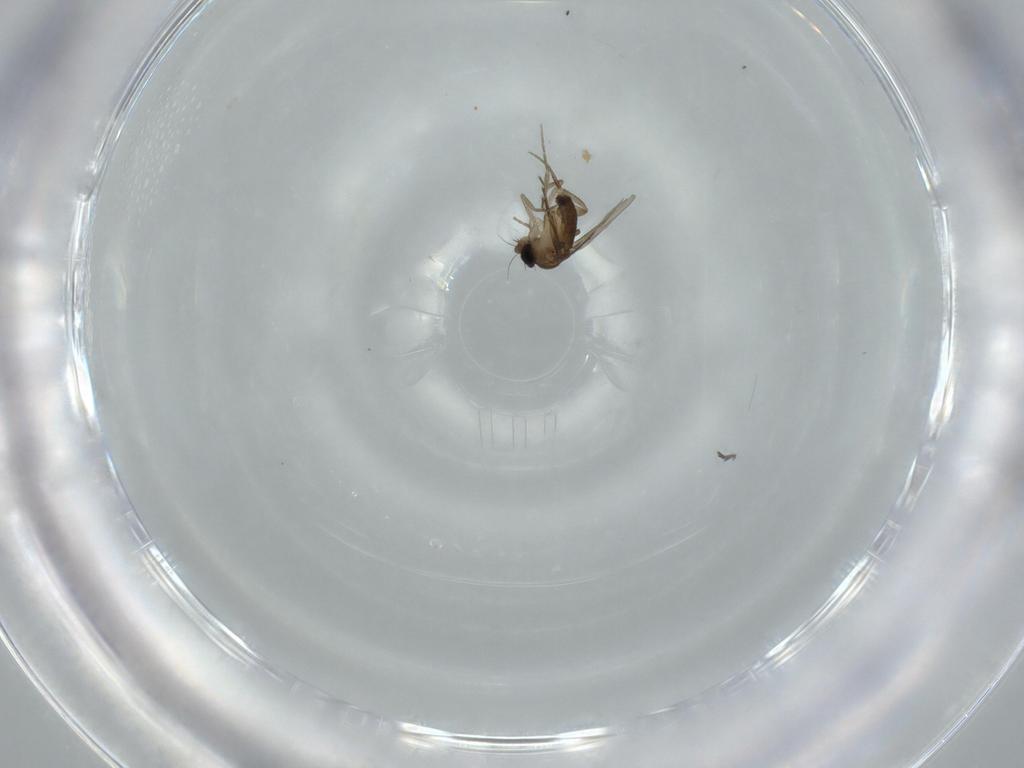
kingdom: Animalia
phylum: Arthropoda
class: Insecta
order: Diptera
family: Phoridae
